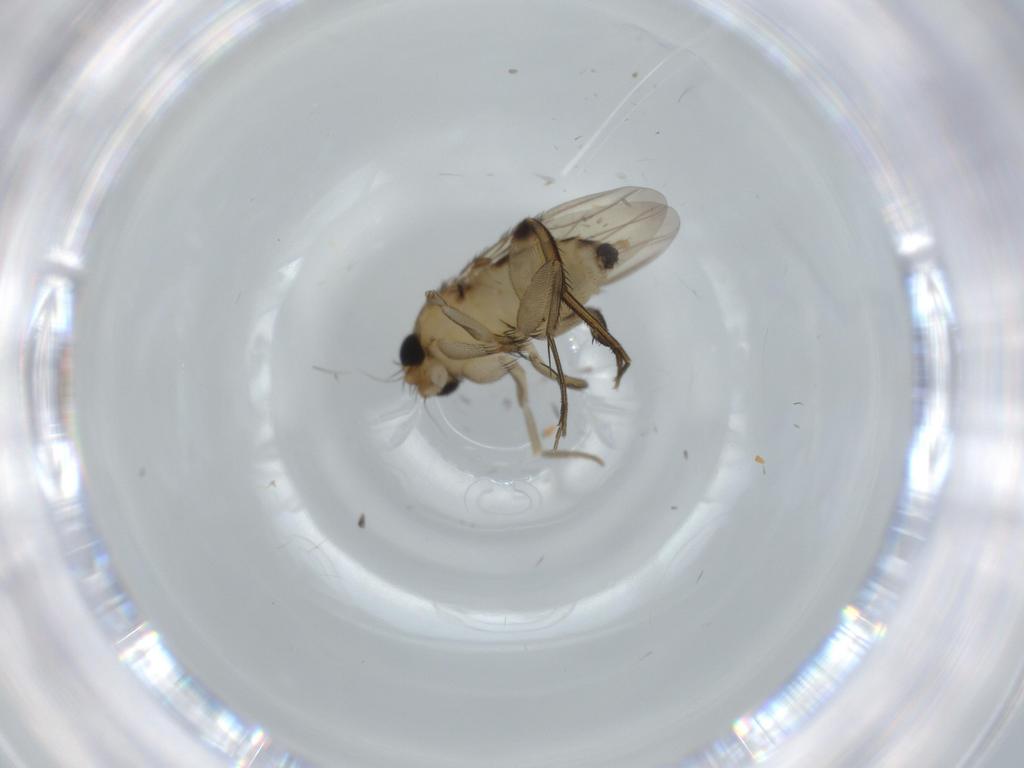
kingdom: Animalia
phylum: Arthropoda
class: Insecta
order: Diptera
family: Phoridae
